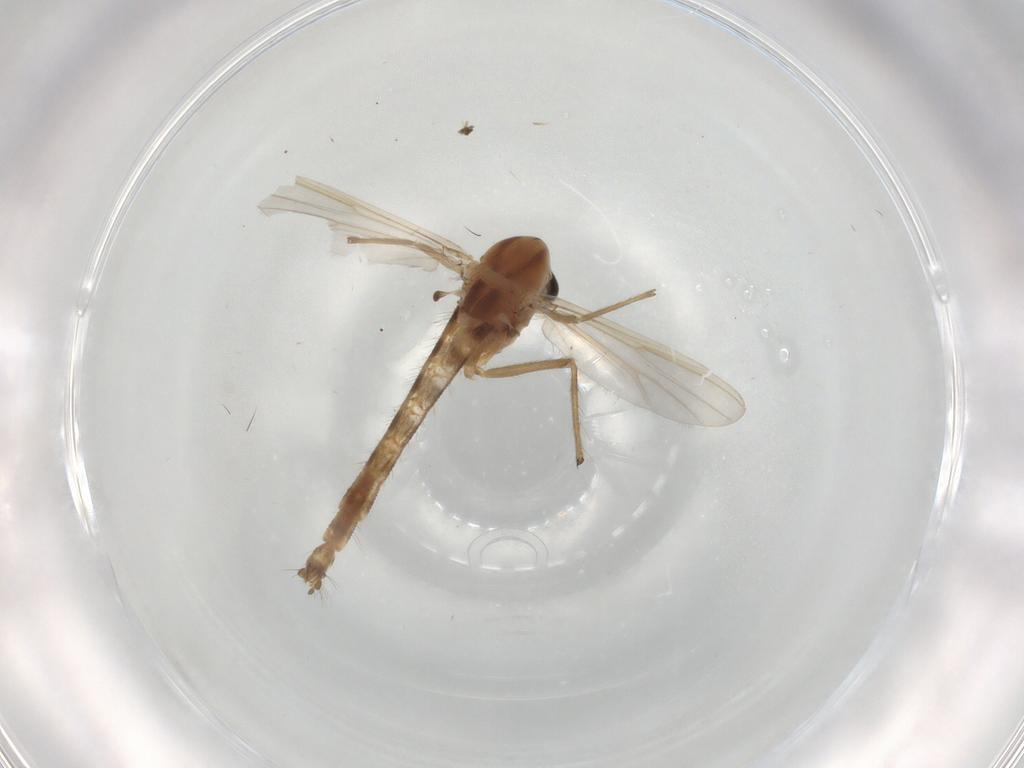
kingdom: Animalia
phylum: Arthropoda
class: Insecta
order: Diptera
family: Chironomidae
